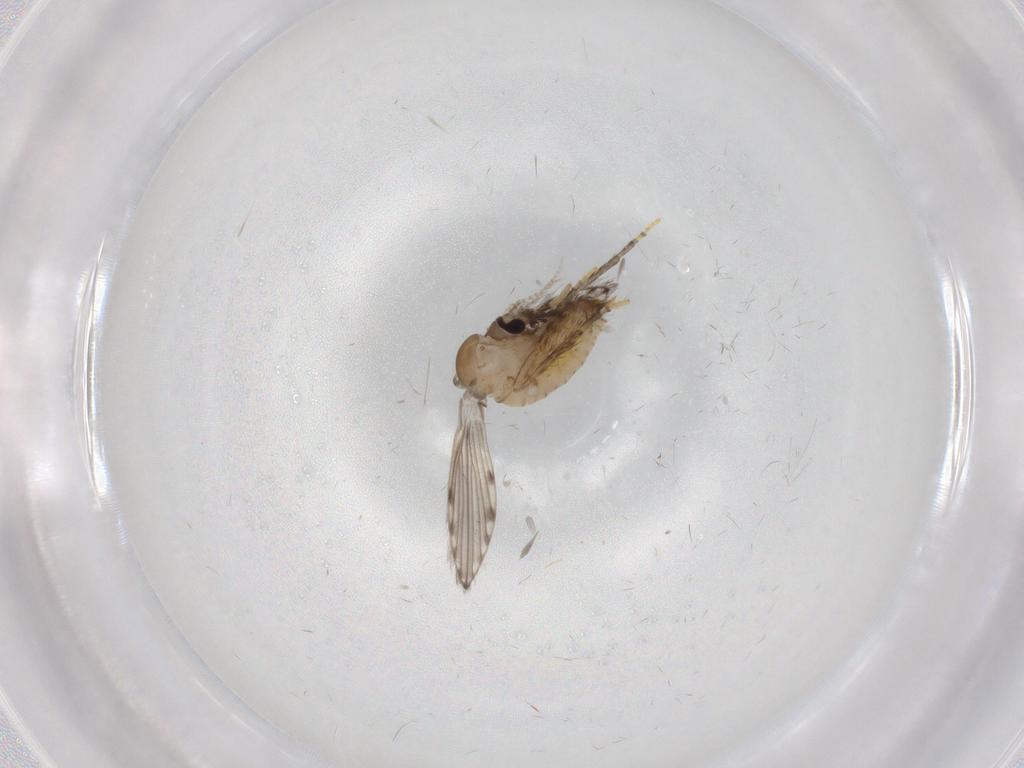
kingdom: Animalia
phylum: Arthropoda
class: Insecta
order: Diptera
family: Psychodidae
